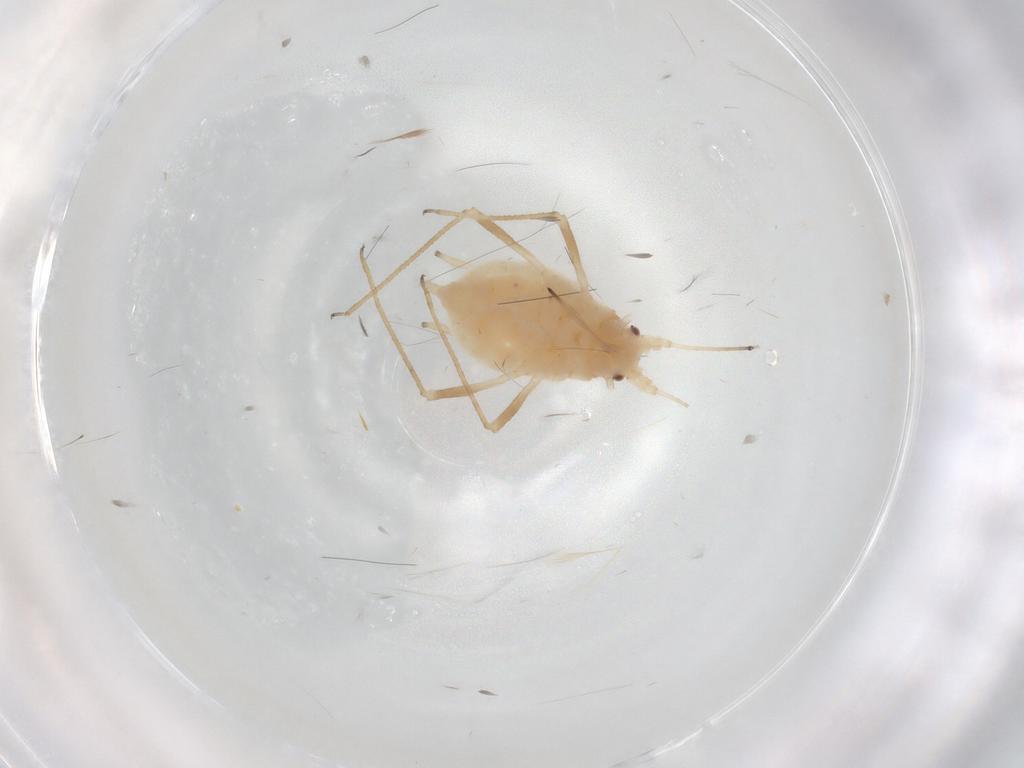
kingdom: Animalia
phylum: Arthropoda
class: Insecta
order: Hemiptera
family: Aphididae
